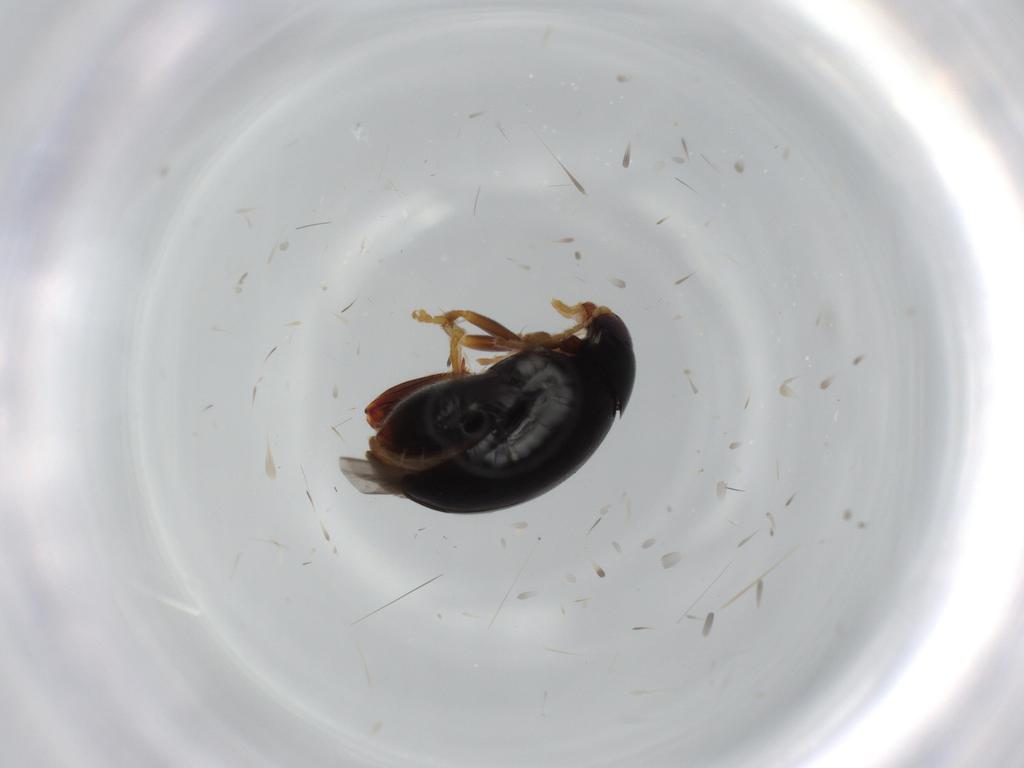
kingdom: Animalia
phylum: Arthropoda
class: Insecta
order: Coleoptera
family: Chrysomelidae
